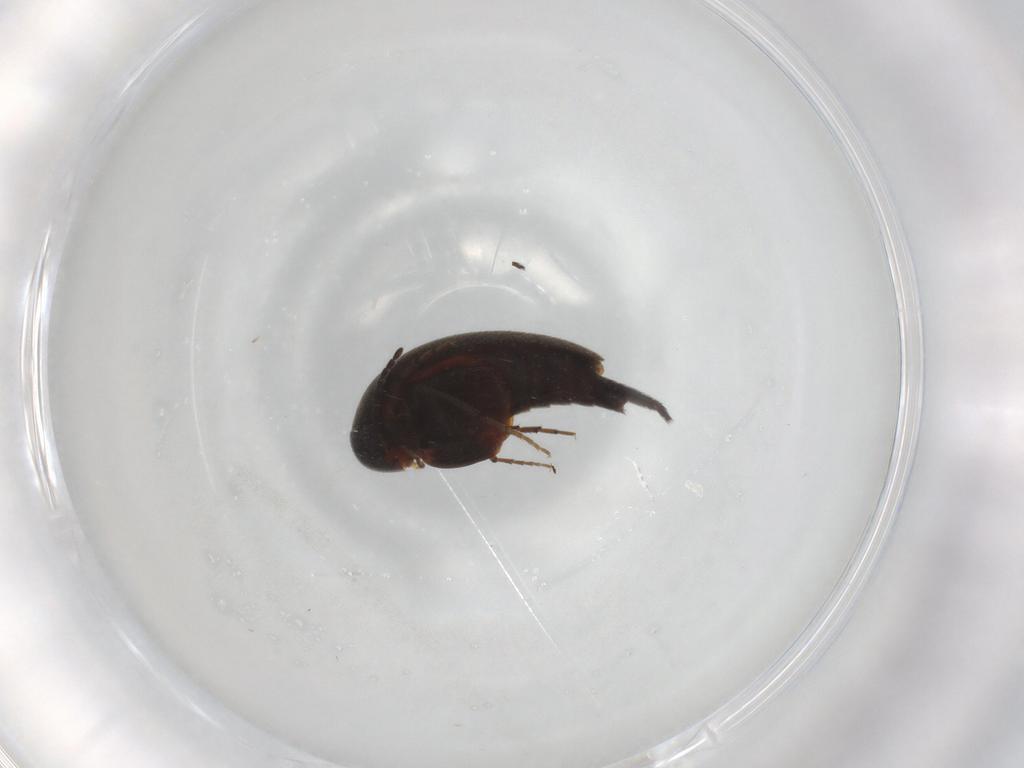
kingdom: Animalia
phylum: Arthropoda
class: Insecta
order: Coleoptera
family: Mordellidae
